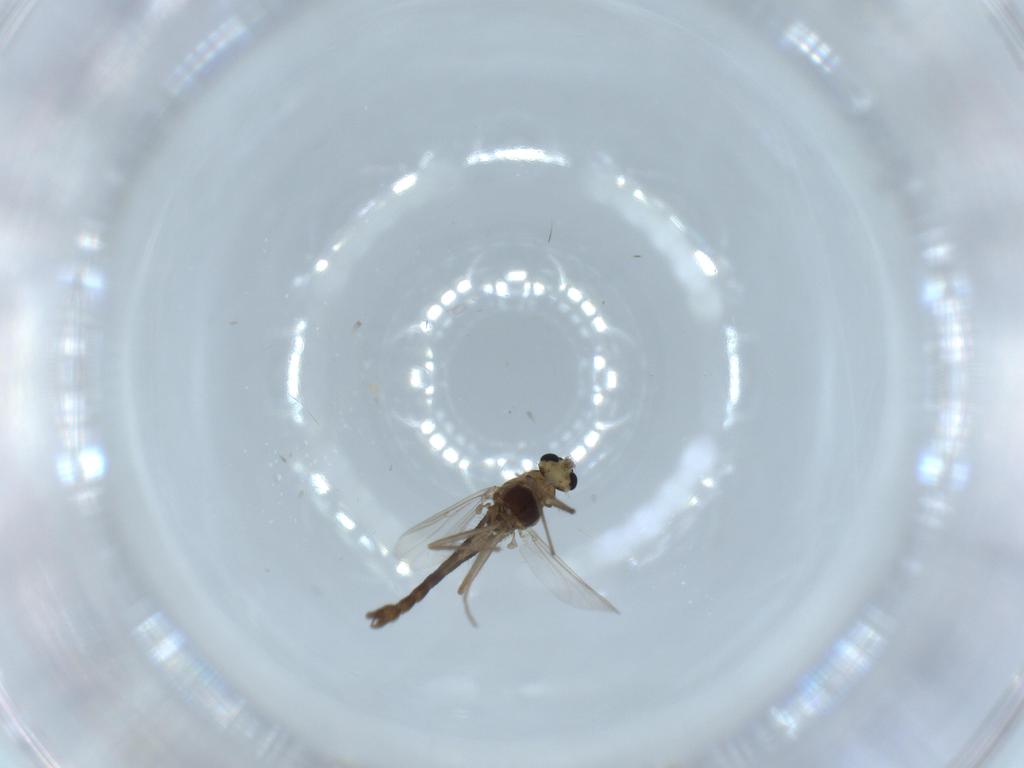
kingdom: Animalia
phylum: Arthropoda
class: Insecta
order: Diptera
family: Chironomidae
